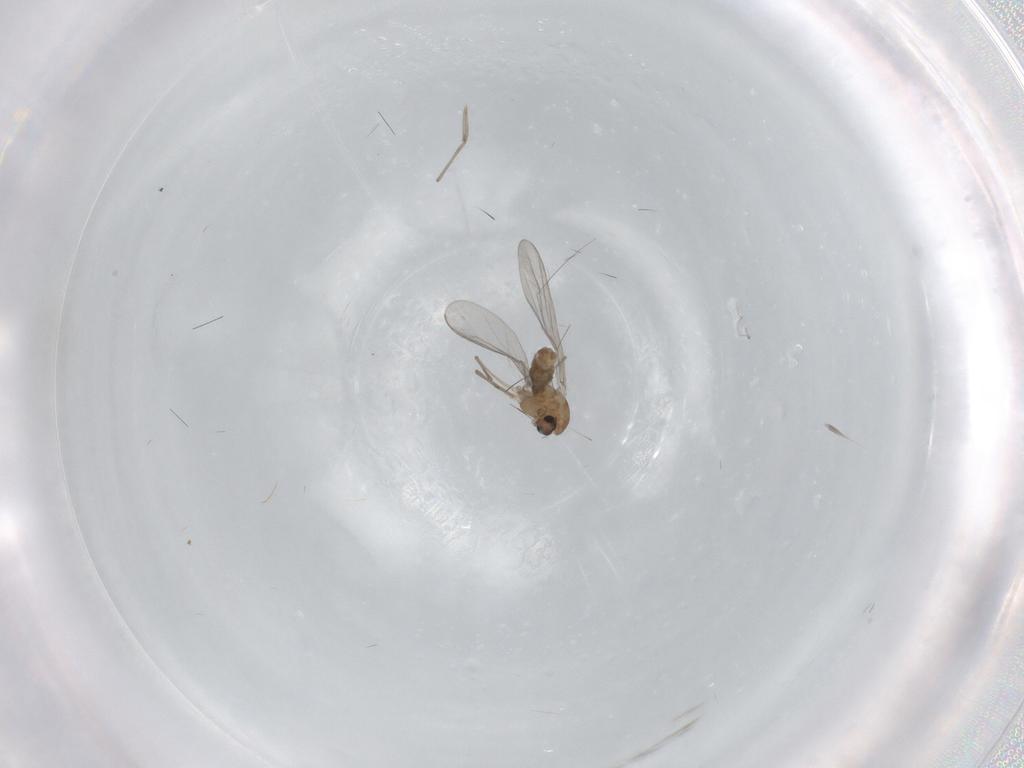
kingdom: Animalia
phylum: Arthropoda
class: Insecta
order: Diptera
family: Chironomidae
